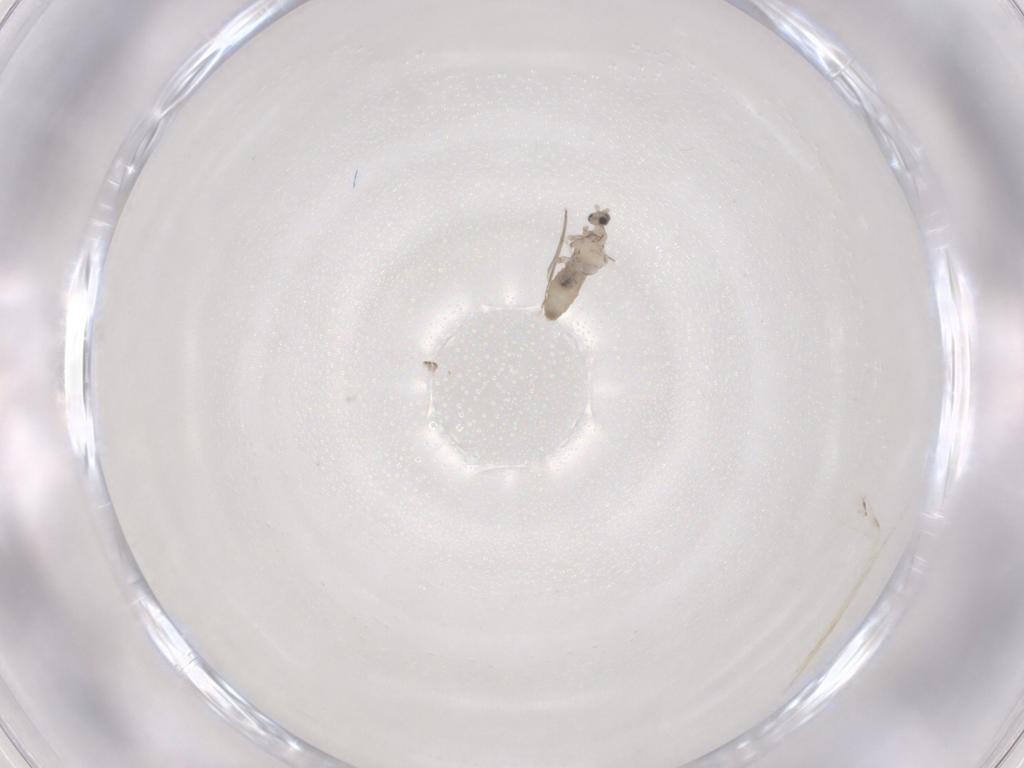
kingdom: Animalia
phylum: Arthropoda
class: Insecta
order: Diptera
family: Cecidomyiidae
